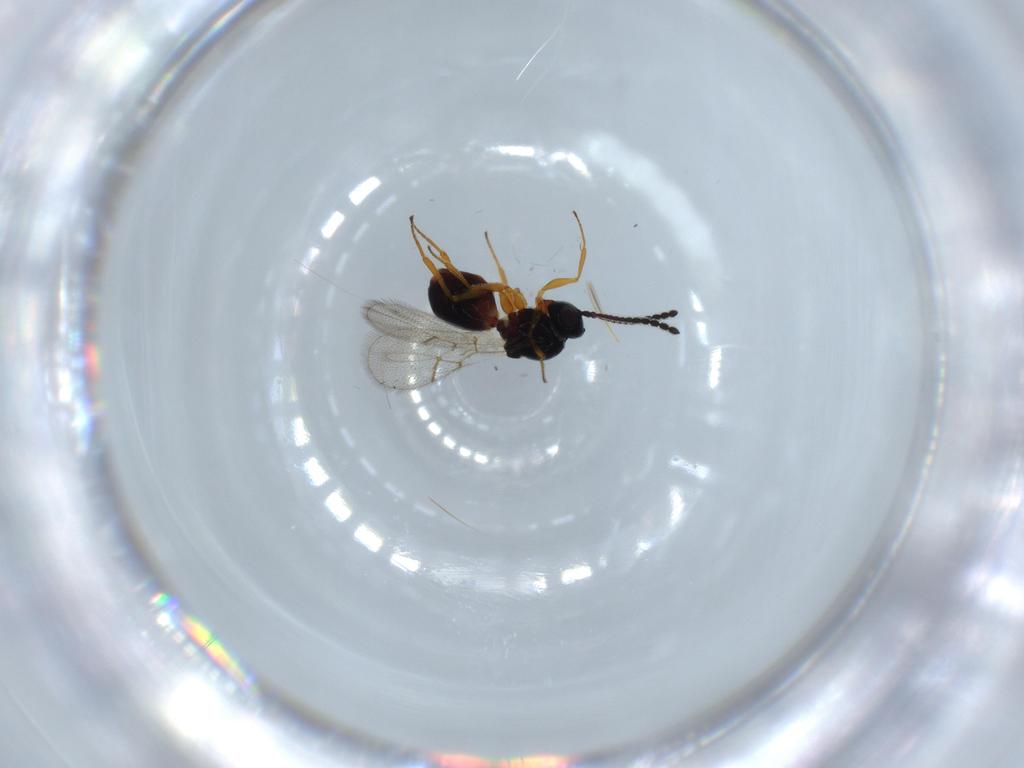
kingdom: Animalia
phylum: Arthropoda
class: Insecta
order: Hymenoptera
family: Figitidae
